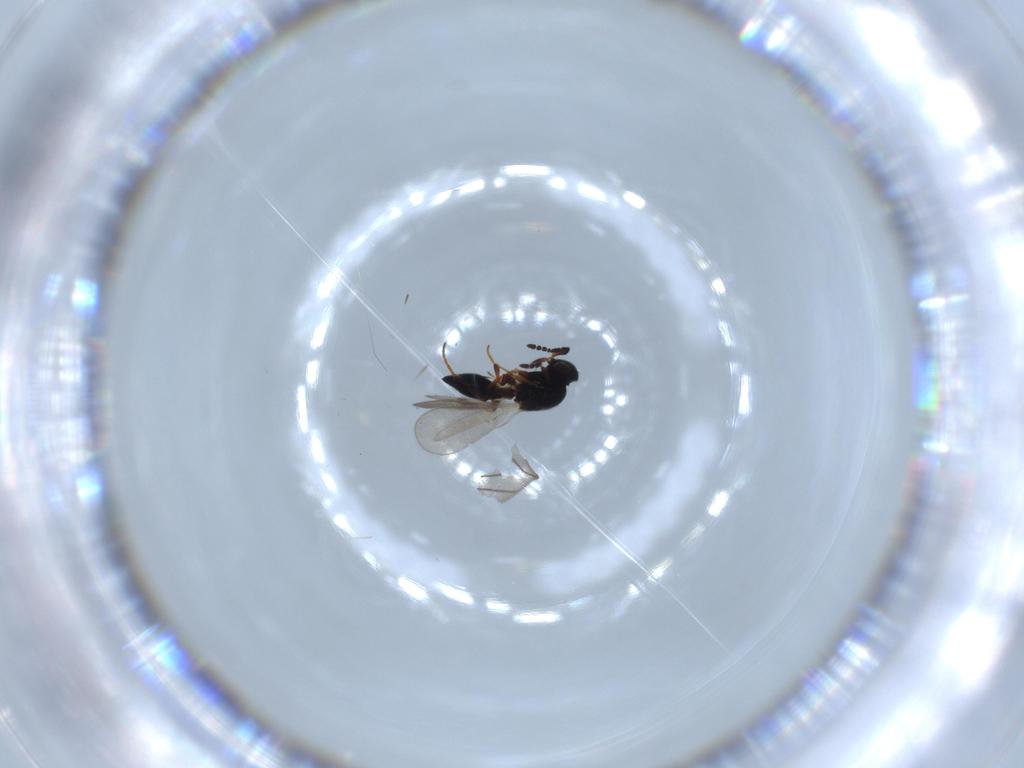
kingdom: Animalia
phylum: Arthropoda
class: Insecta
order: Hymenoptera
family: Platygastridae
